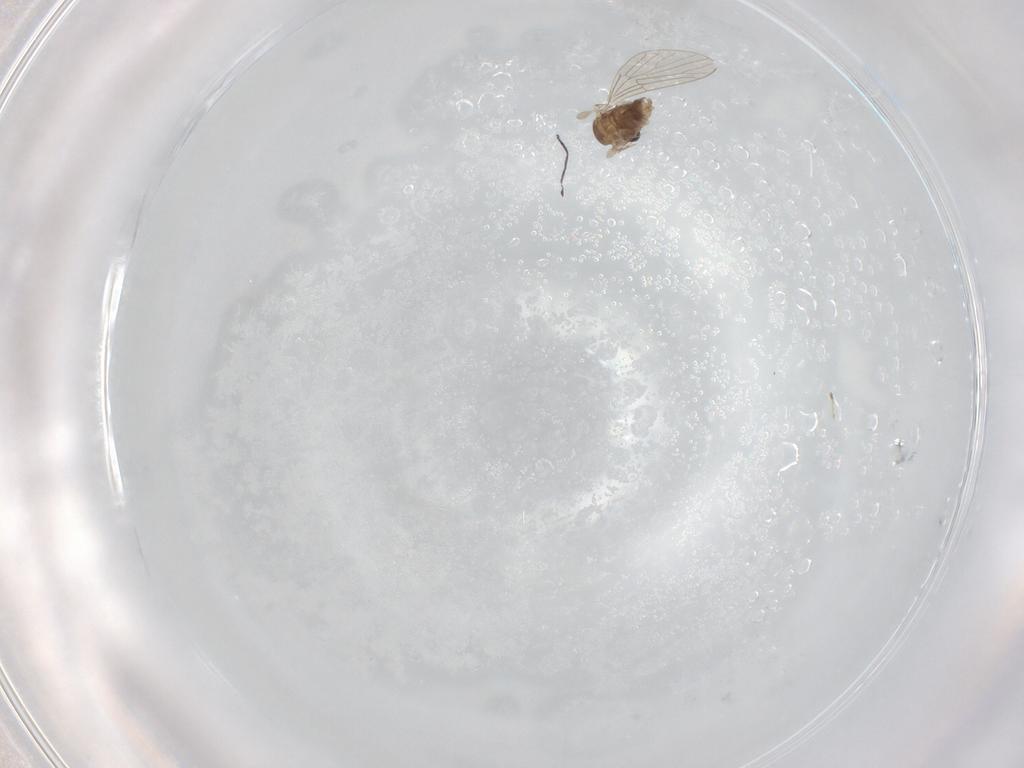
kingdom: Animalia
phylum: Arthropoda
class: Insecta
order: Diptera
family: Psychodidae
